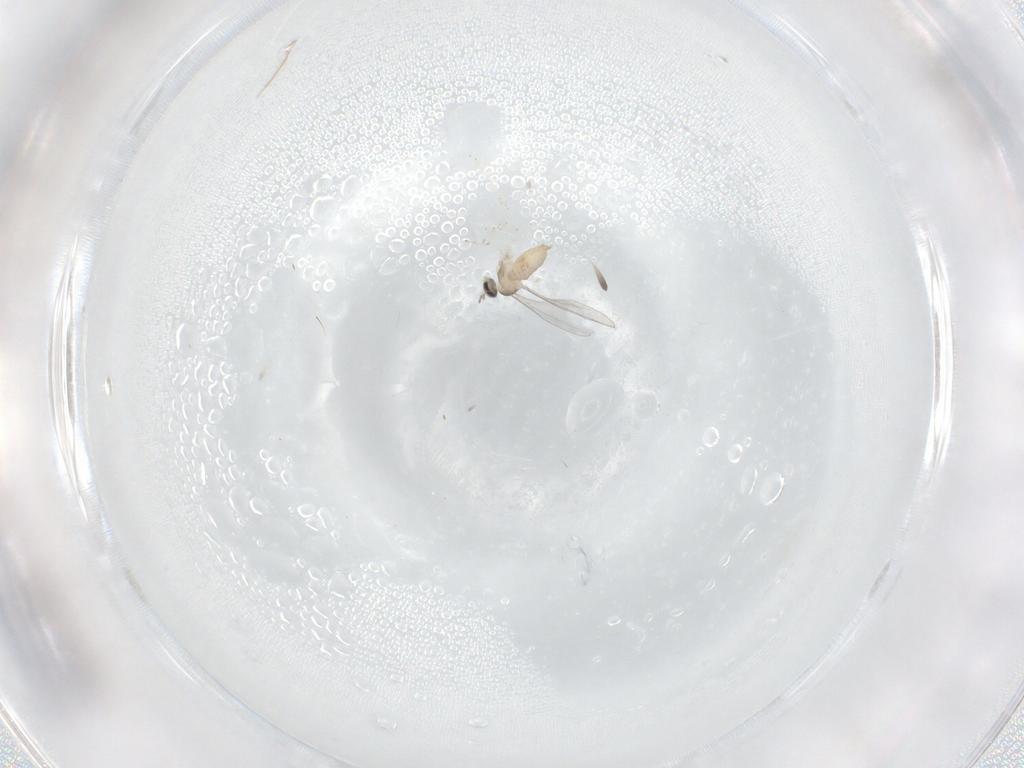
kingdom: Animalia
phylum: Arthropoda
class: Insecta
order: Diptera
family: Cecidomyiidae
